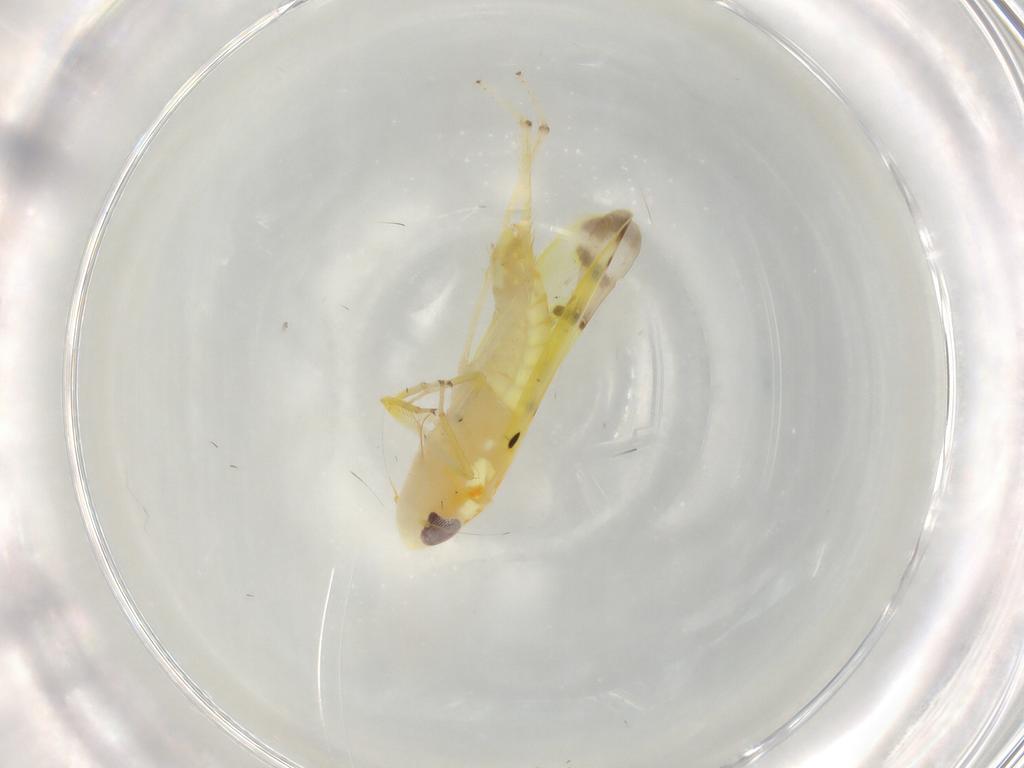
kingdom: Animalia
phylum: Arthropoda
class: Insecta
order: Hemiptera
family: Cicadellidae
